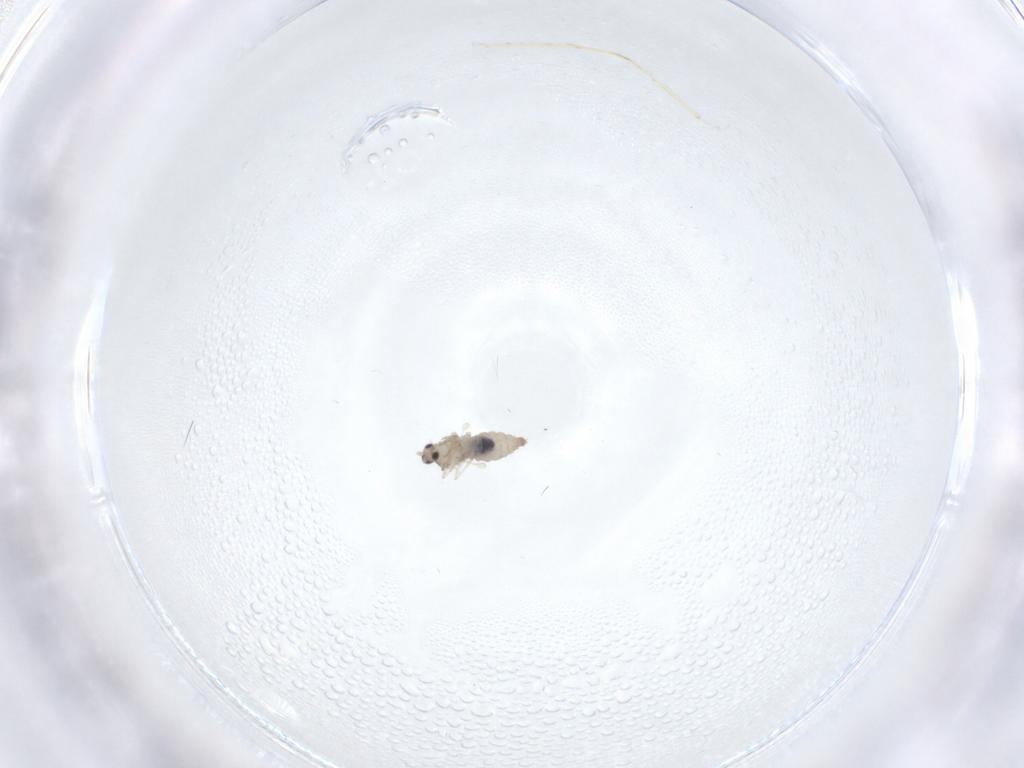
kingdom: Animalia
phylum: Arthropoda
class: Insecta
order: Diptera
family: Cecidomyiidae
